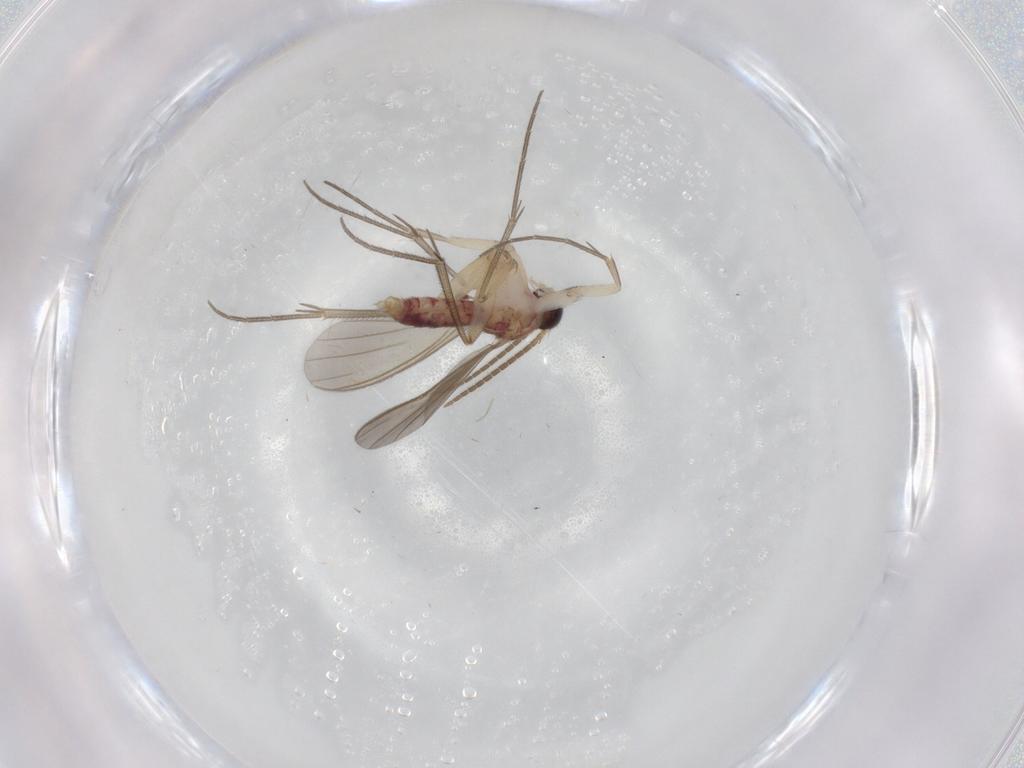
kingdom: Animalia
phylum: Arthropoda
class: Insecta
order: Diptera
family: Mycetophilidae
